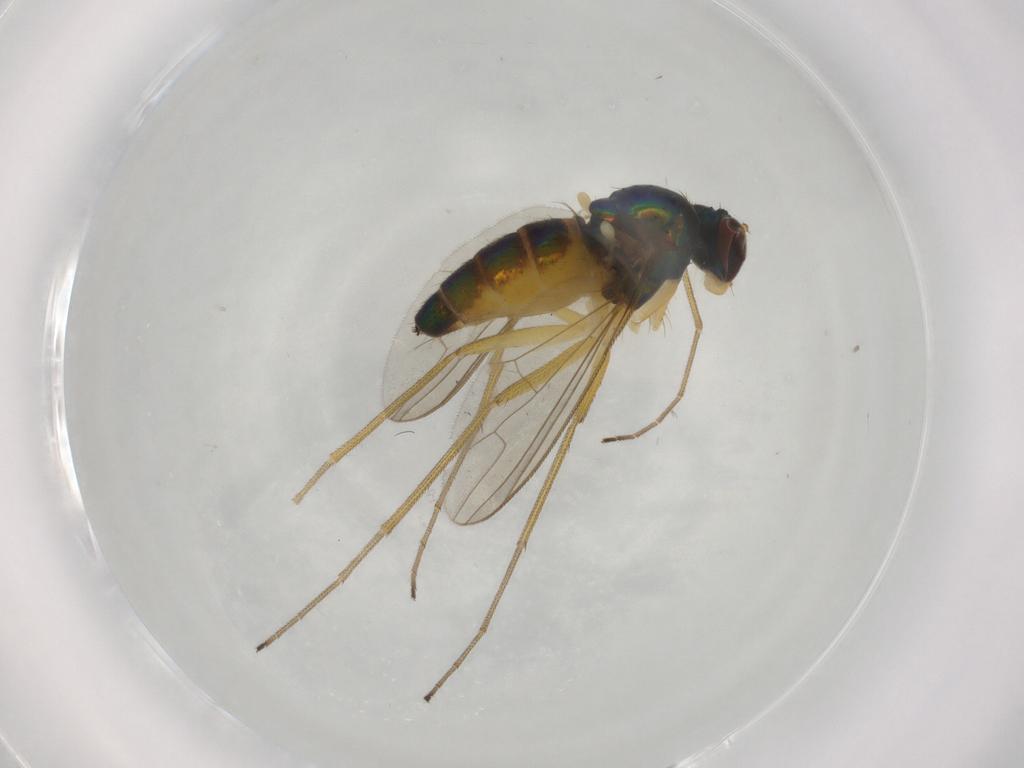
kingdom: Animalia
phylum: Arthropoda
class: Insecta
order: Diptera
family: Dolichopodidae
